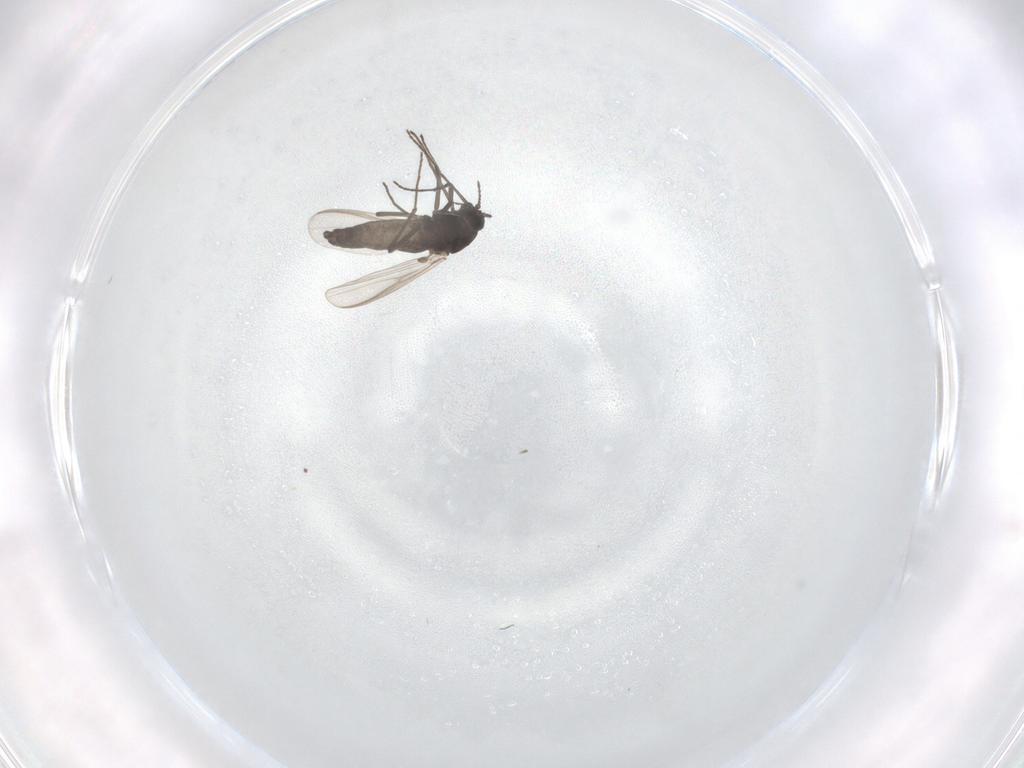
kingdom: Animalia
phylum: Arthropoda
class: Insecta
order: Diptera
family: Chironomidae
